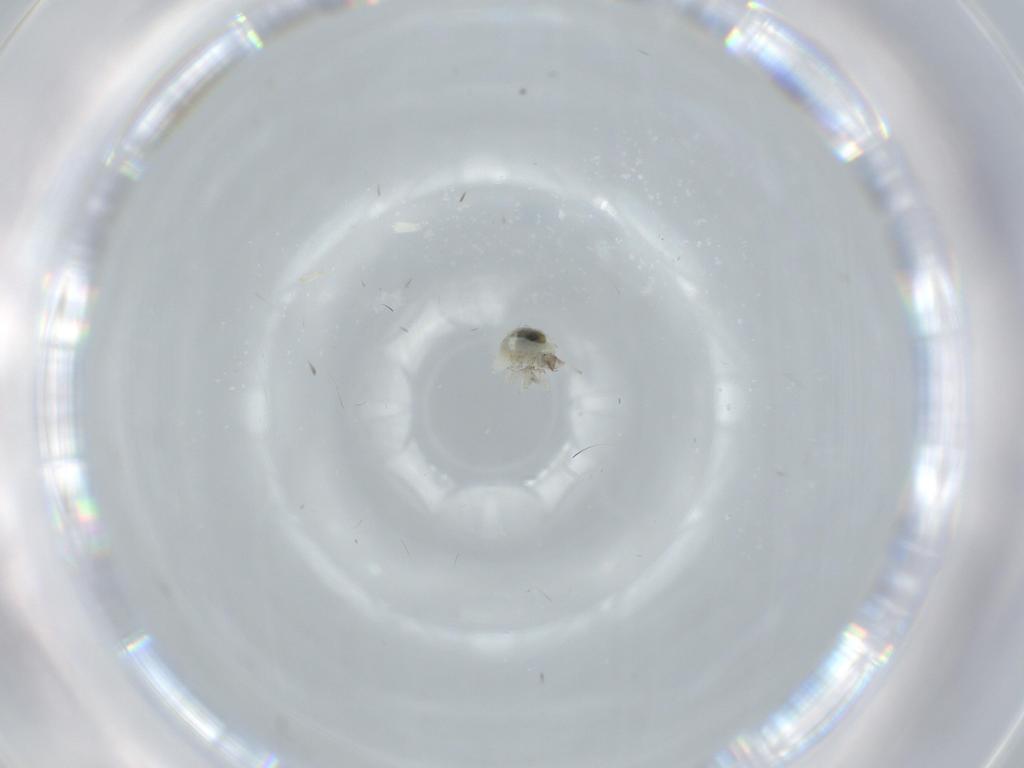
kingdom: Animalia
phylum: Arthropoda
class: Insecta
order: Neuroptera
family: Coniopterygidae
